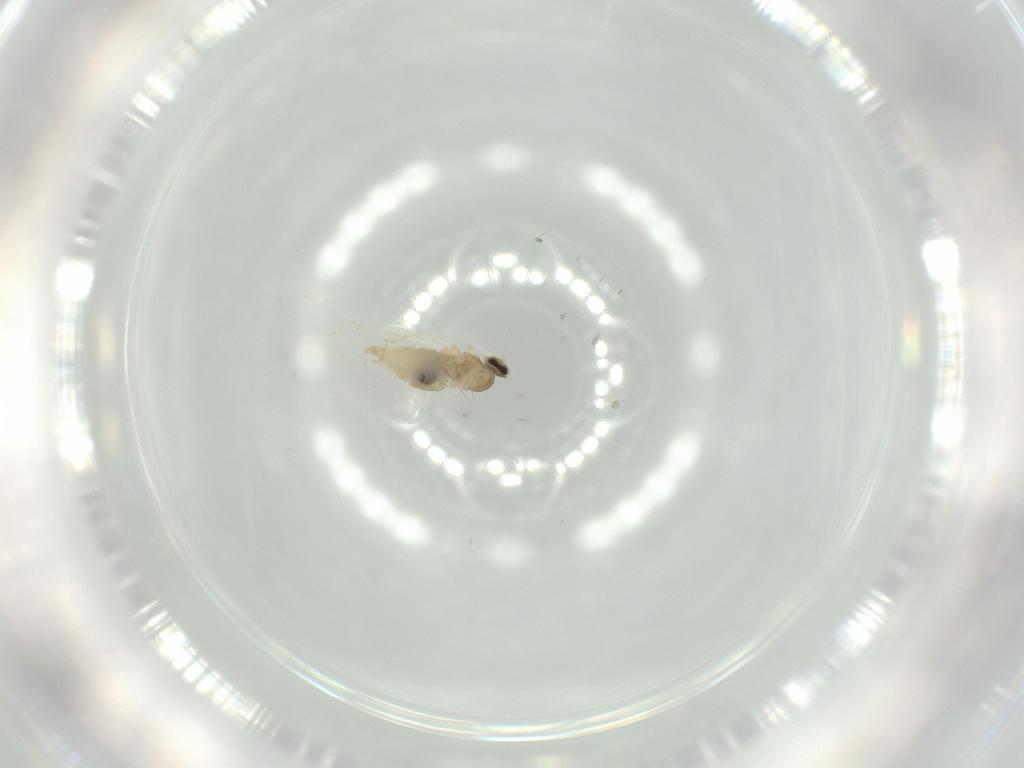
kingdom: Animalia
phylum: Arthropoda
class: Insecta
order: Diptera
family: Cecidomyiidae
